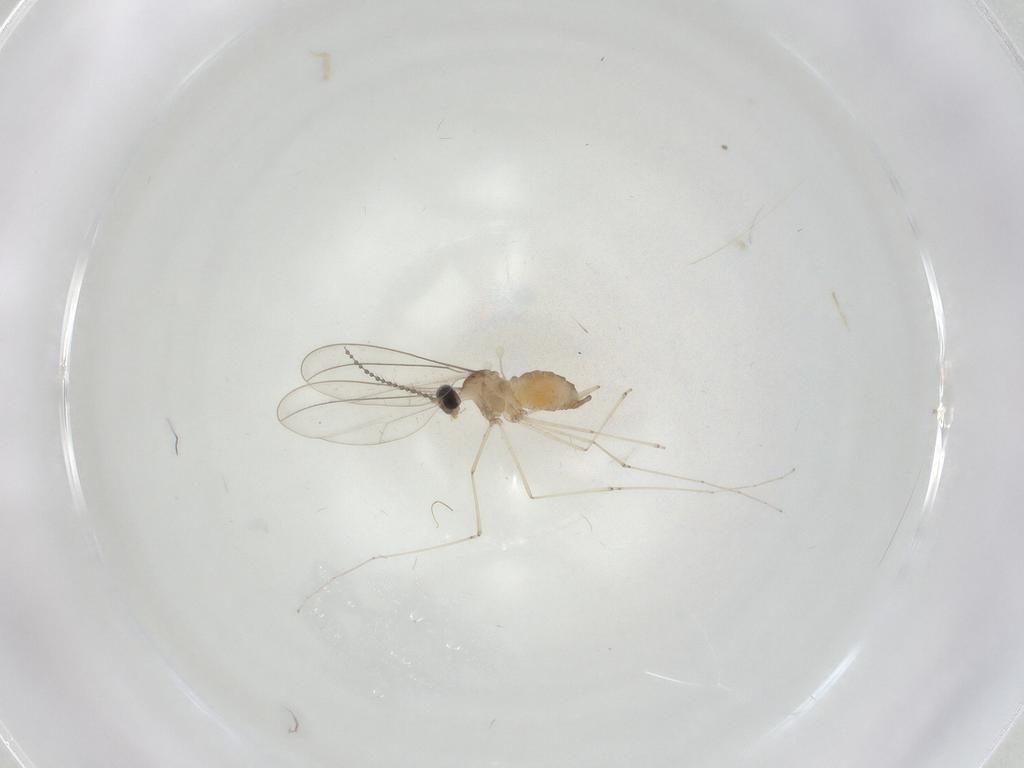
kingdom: Animalia
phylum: Arthropoda
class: Insecta
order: Diptera
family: Cecidomyiidae
